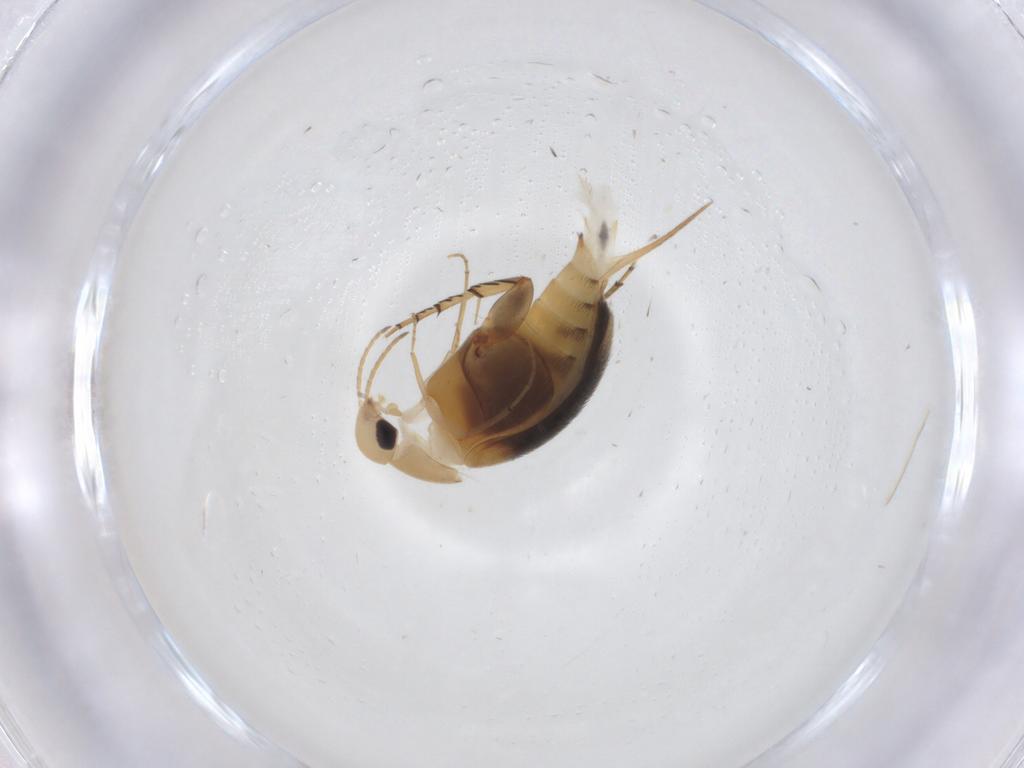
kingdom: Animalia
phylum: Arthropoda
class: Insecta
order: Coleoptera
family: Mordellidae
